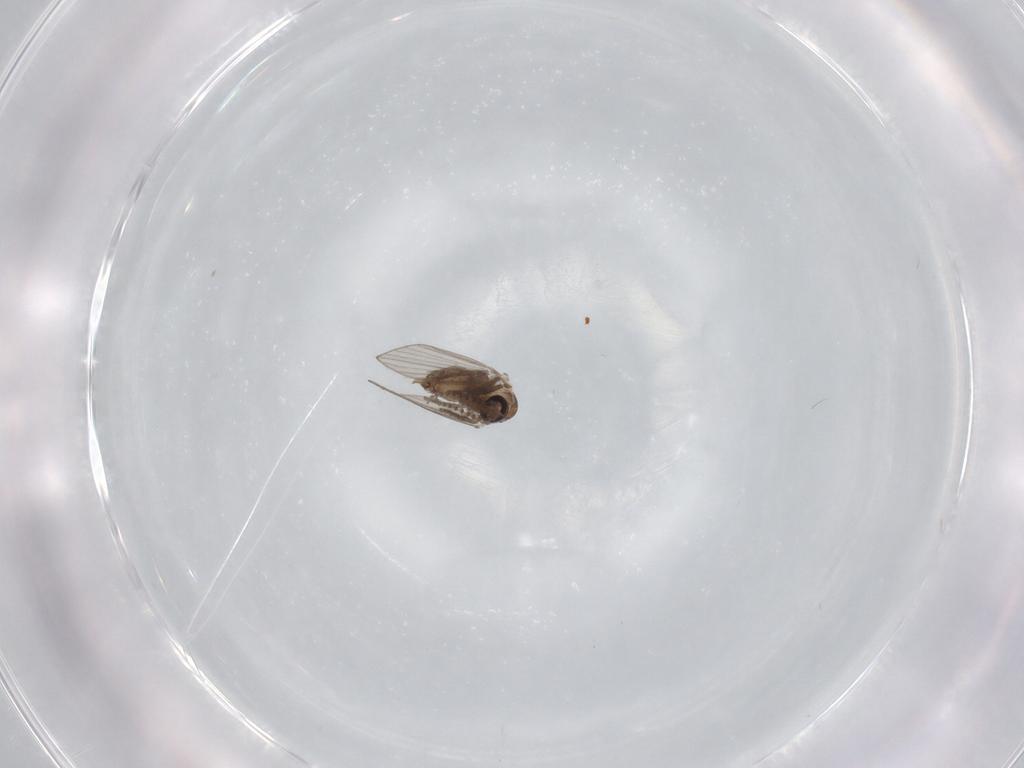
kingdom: Animalia
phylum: Arthropoda
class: Insecta
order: Diptera
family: Psychodidae
